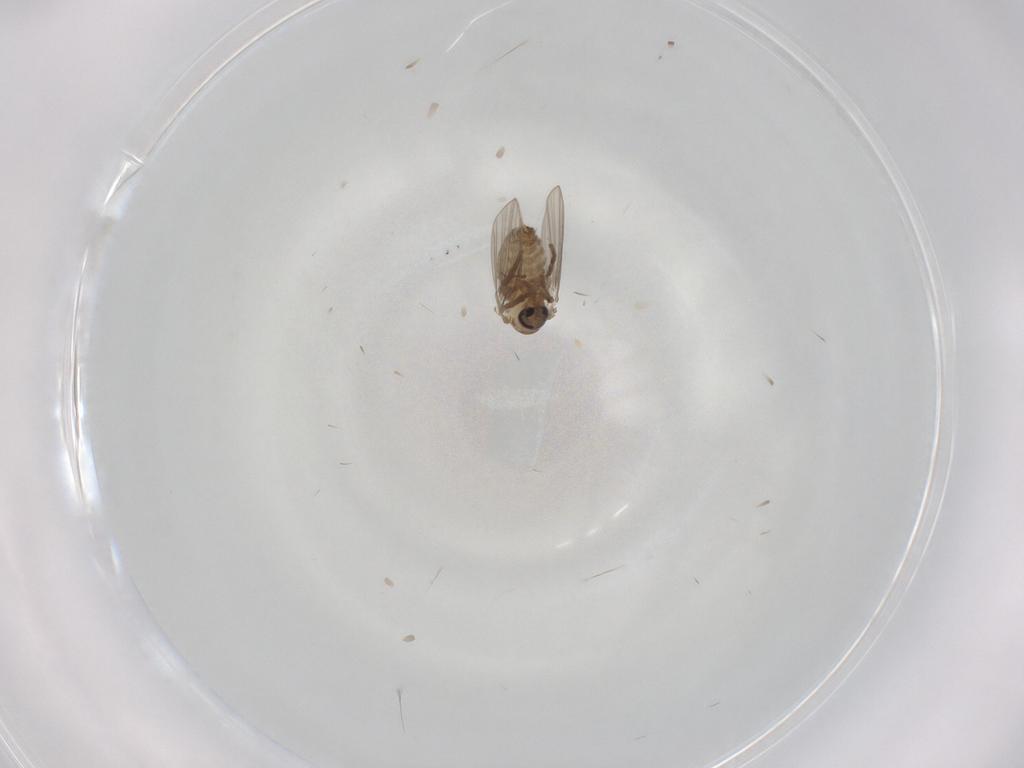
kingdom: Animalia
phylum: Arthropoda
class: Insecta
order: Diptera
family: Psychodidae
